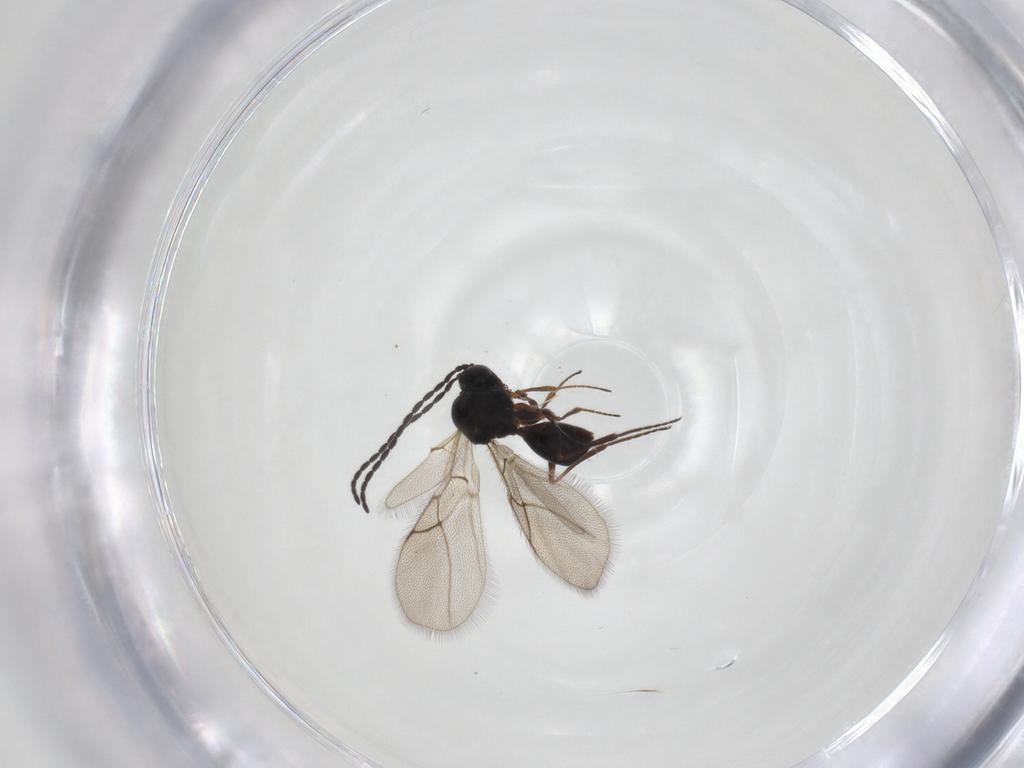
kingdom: Animalia
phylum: Arthropoda
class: Insecta
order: Hymenoptera
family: Figitidae
